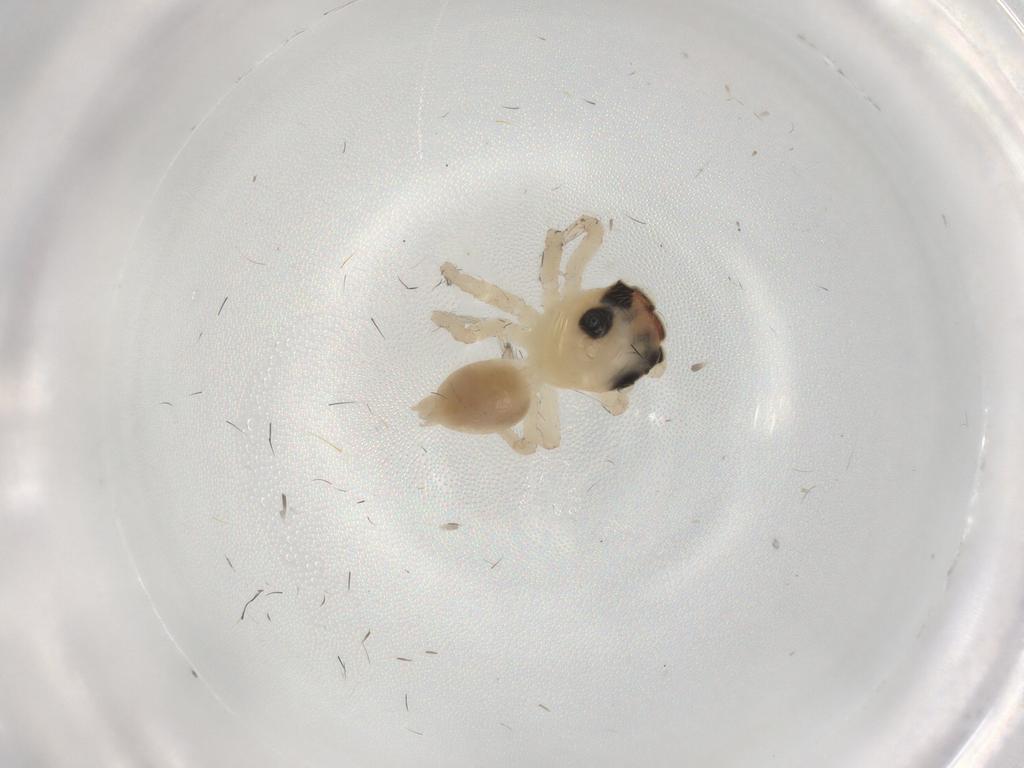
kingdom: Animalia
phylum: Arthropoda
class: Arachnida
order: Araneae
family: Salticidae
